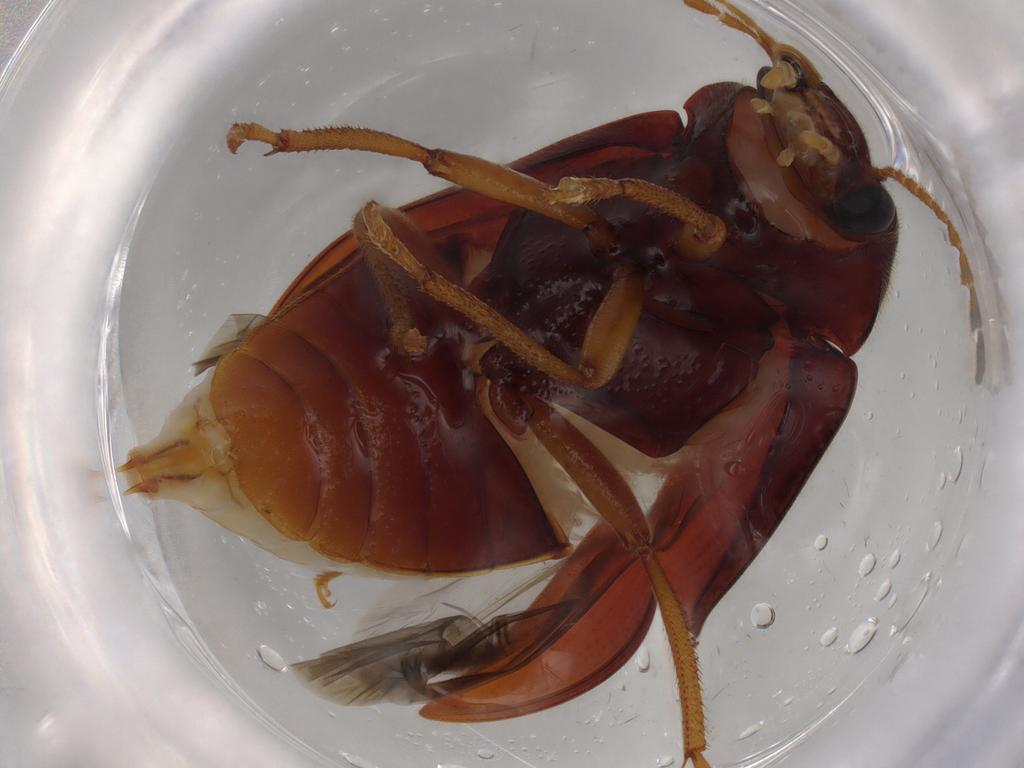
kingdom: Animalia
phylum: Arthropoda
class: Insecta
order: Coleoptera
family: Ptilodactylidae
